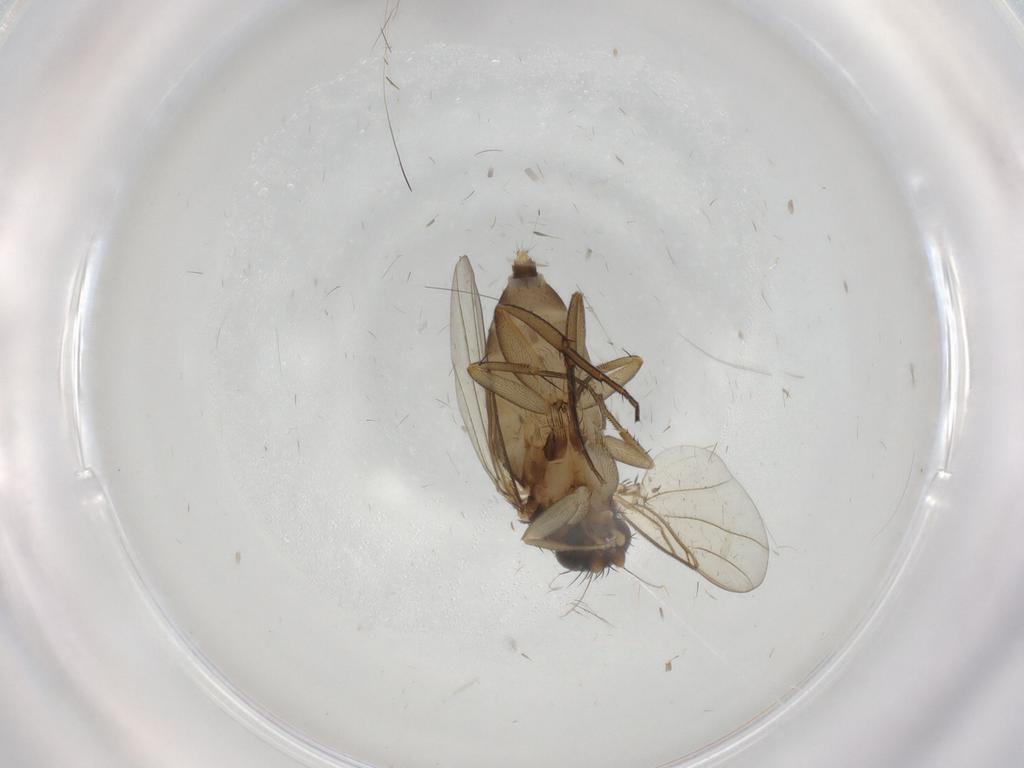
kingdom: Animalia
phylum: Arthropoda
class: Insecta
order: Diptera
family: Phoridae
